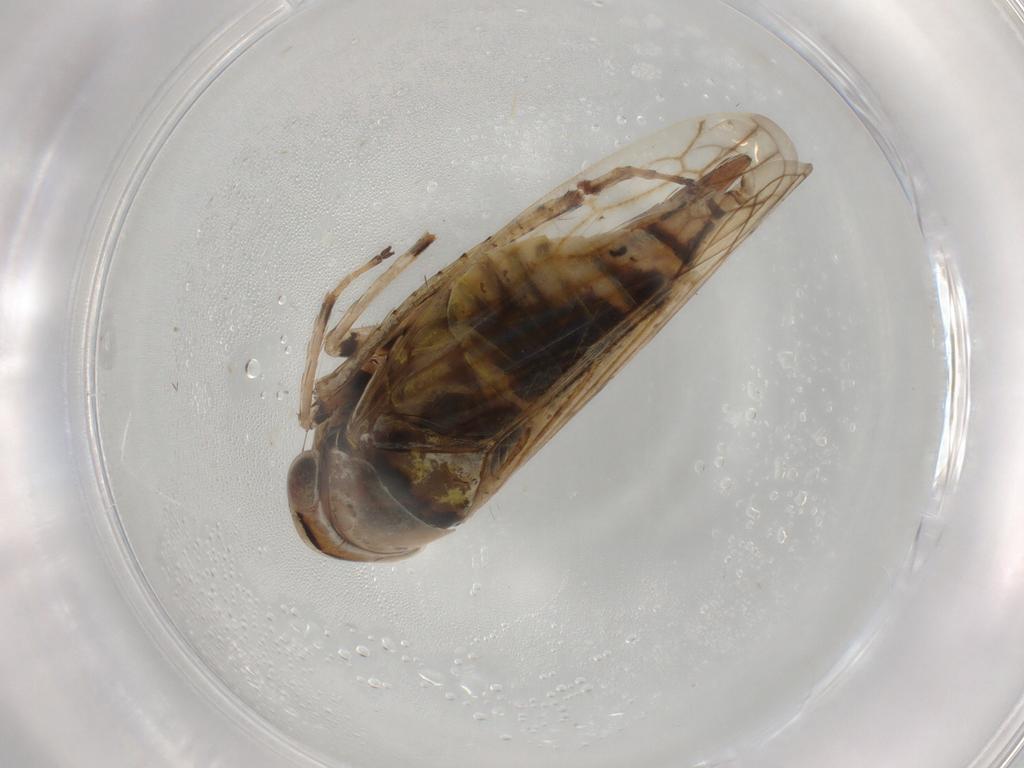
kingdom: Animalia
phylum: Arthropoda
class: Insecta
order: Hemiptera
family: Cicadellidae
